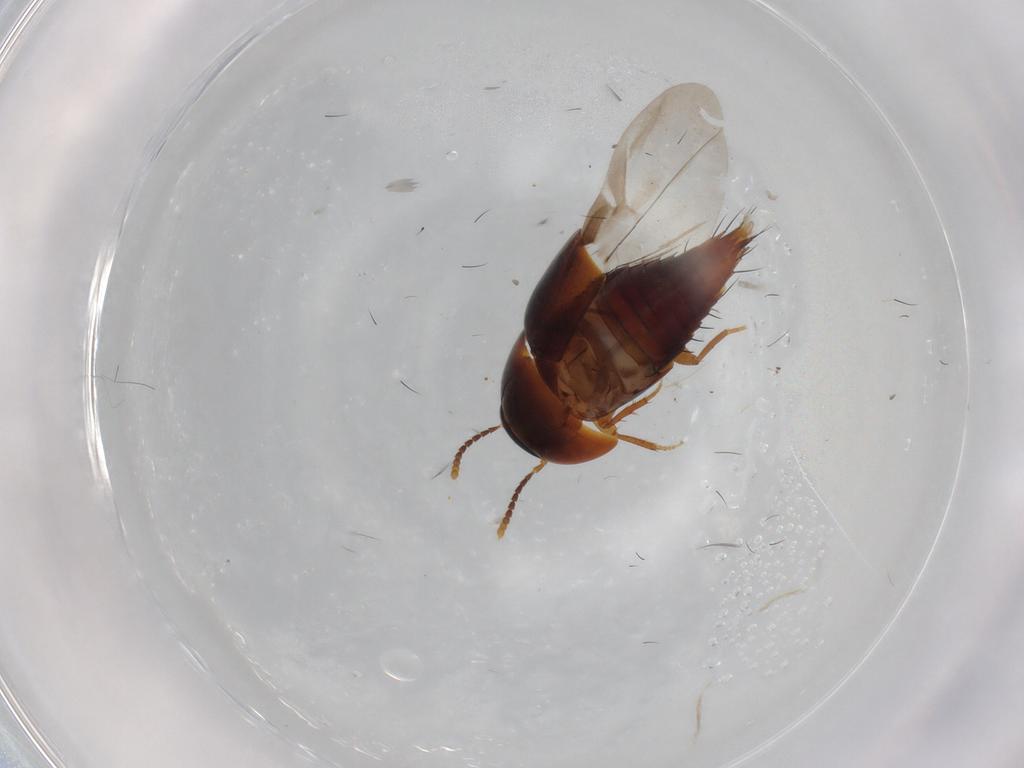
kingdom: Animalia
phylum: Arthropoda
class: Insecta
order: Coleoptera
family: Staphylinidae
